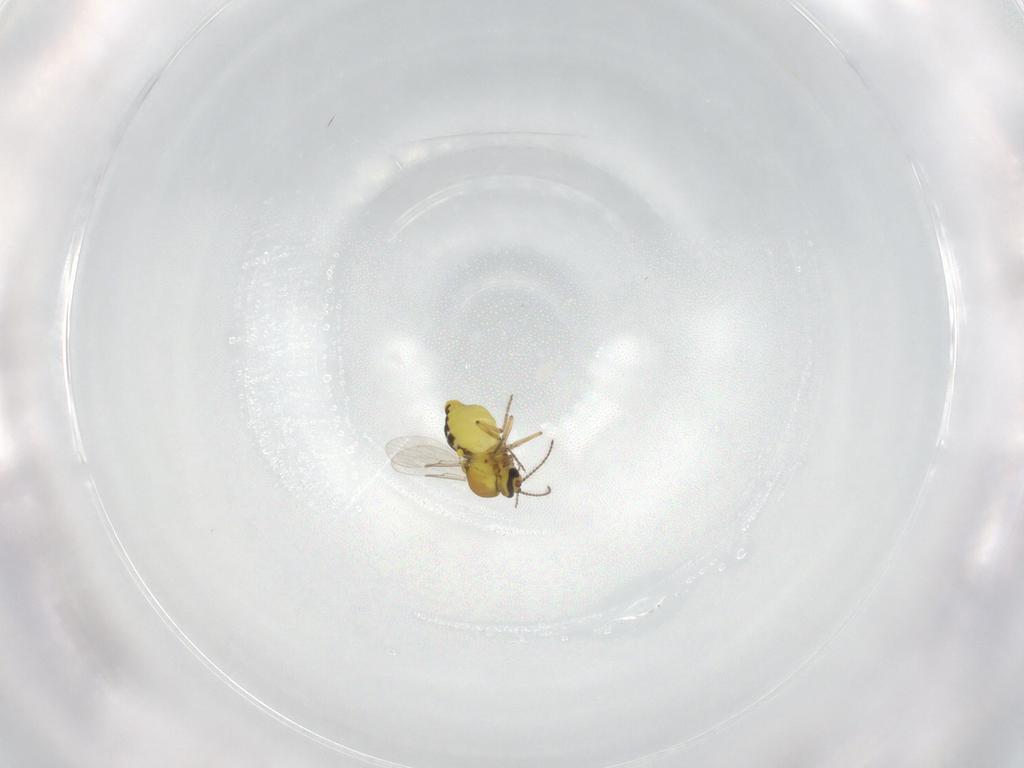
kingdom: Animalia
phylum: Arthropoda
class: Insecta
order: Diptera
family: Ceratopogonidae
